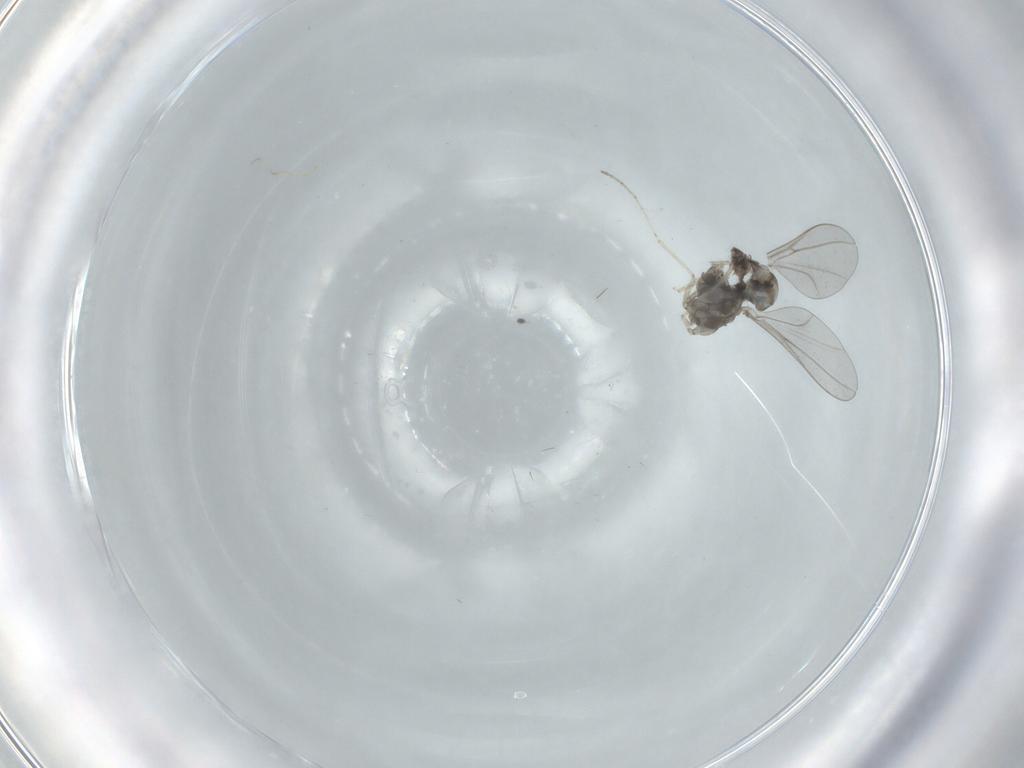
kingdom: Animalia
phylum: Arthropoda
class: Insecta
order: Diptera
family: Cecidomyiidae
